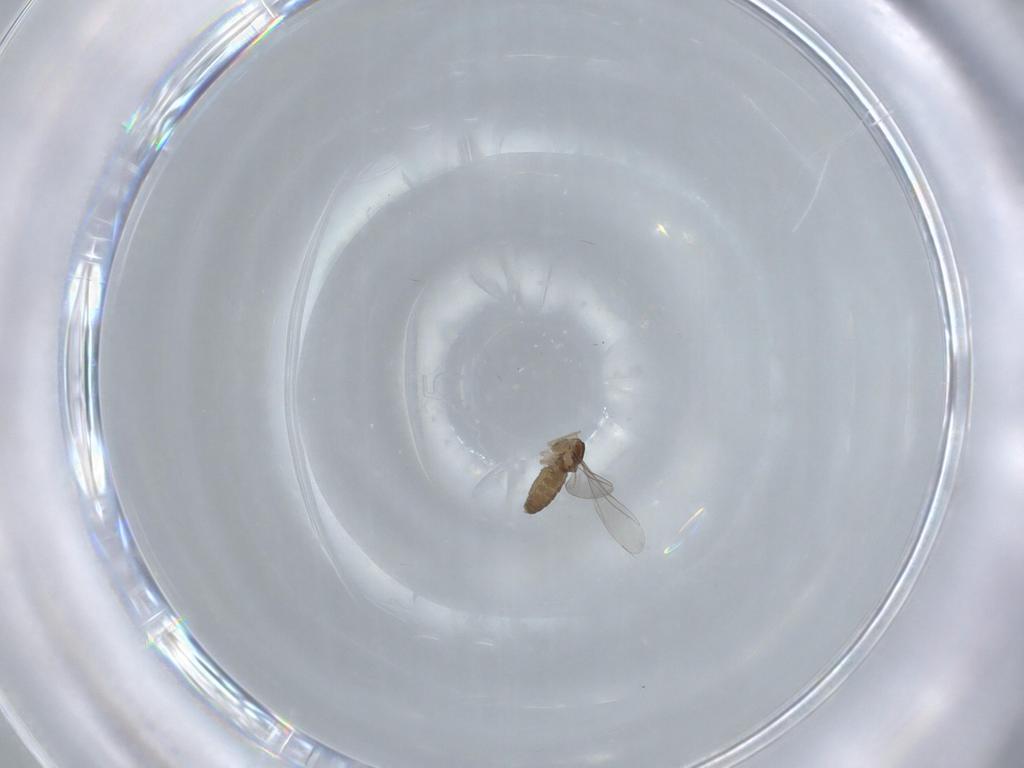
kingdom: Animalia
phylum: Arthropoda
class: Insecta
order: Diptera
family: Cecidomyiidae
